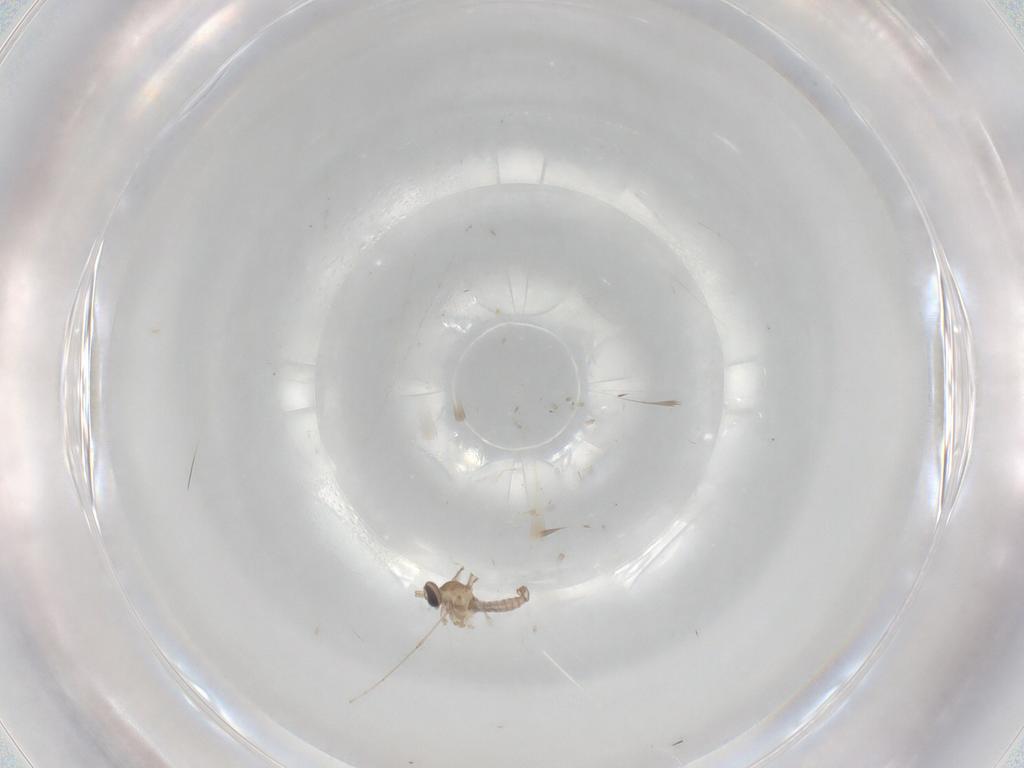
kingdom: Animalia
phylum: Arthropoda
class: Insecta
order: Diptera
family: Cecidomyiidae
